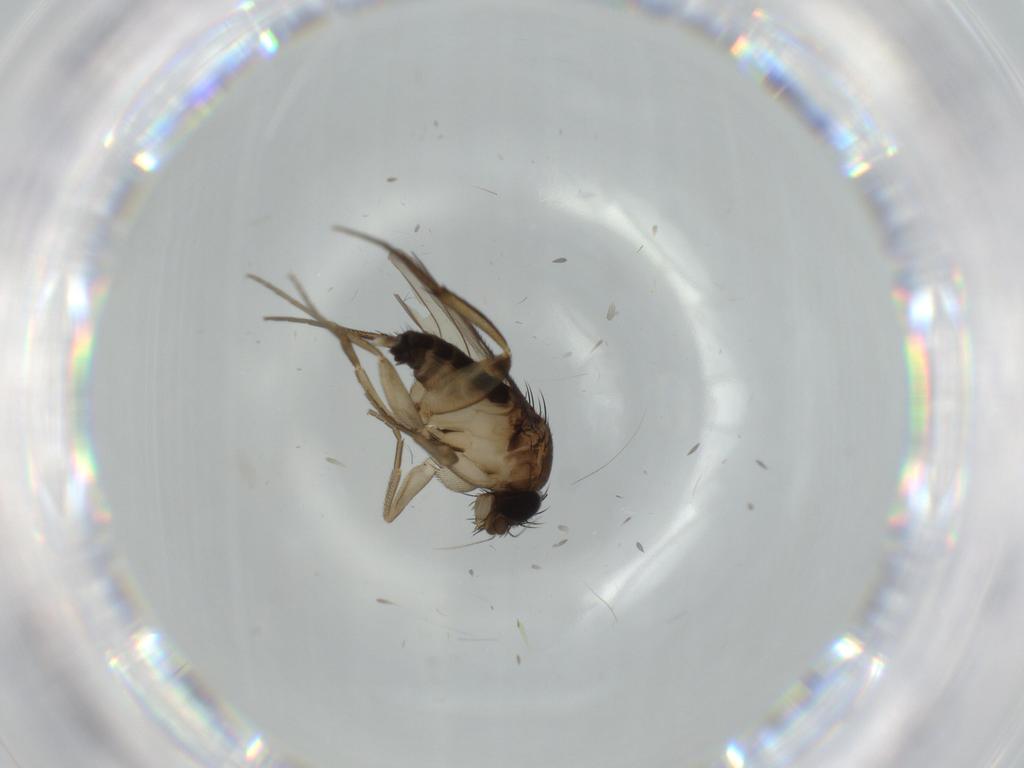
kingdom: Animalia
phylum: Arthropoda
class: Insecta
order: Diptera
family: Phoridae
